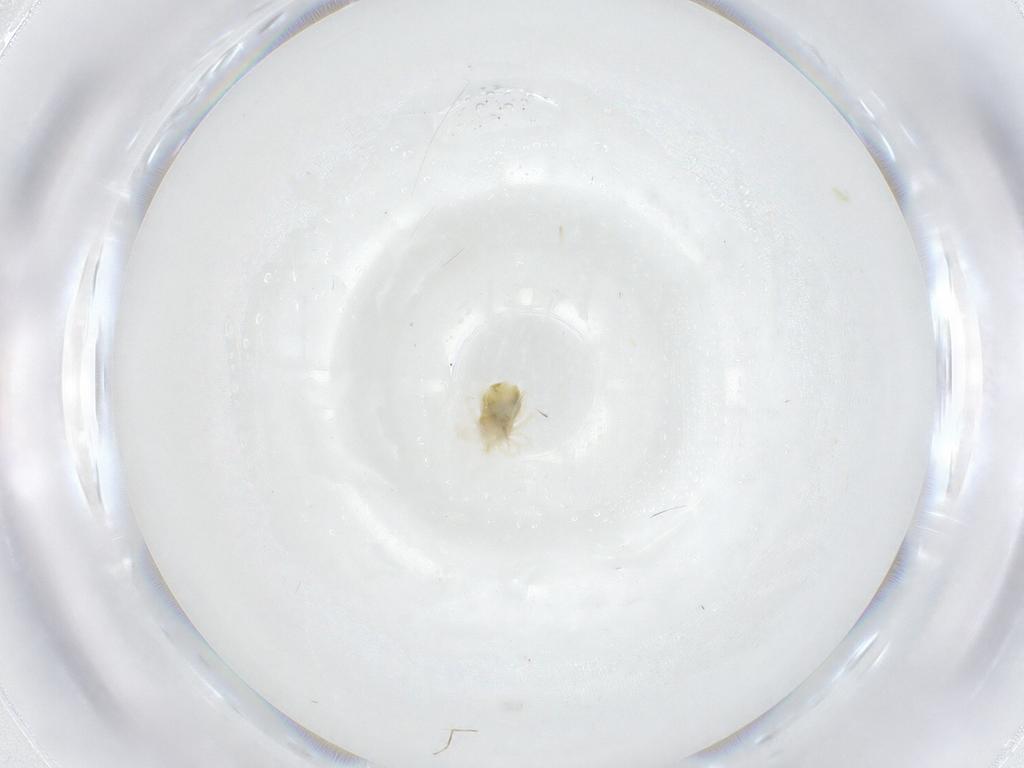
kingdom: Animalia
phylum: Arthropoda
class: Arachnida
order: Trombidiformes
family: Anystidae
